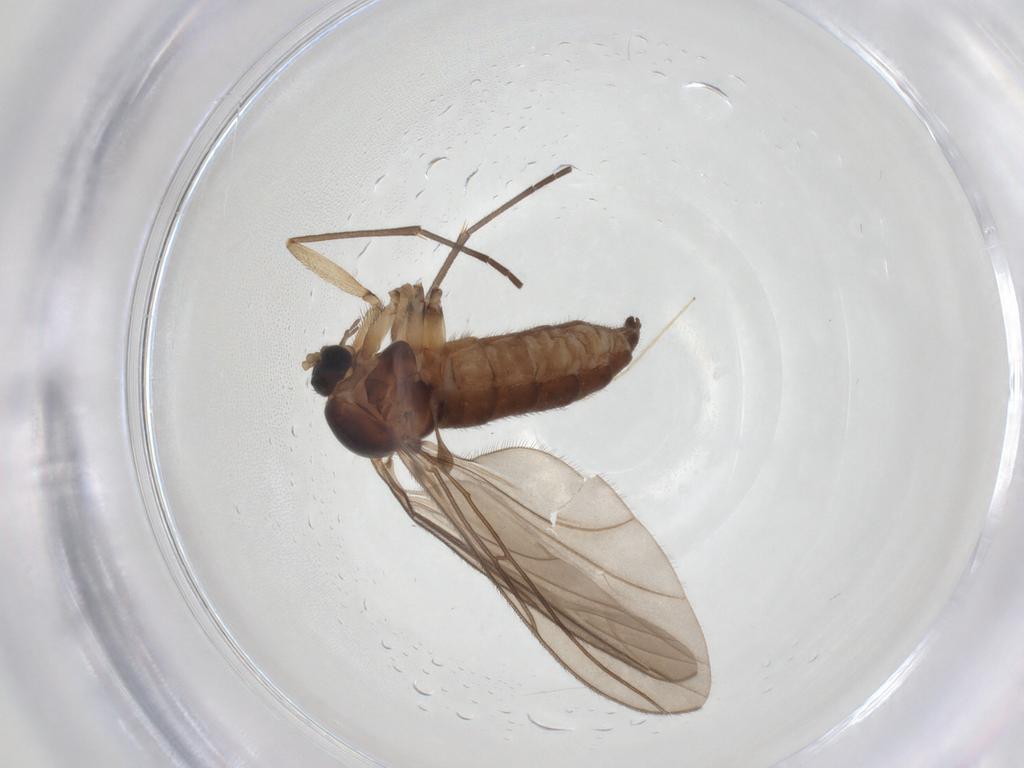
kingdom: Animalia
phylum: Arthropoda
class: Insecta
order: Diptera
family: Sciaridae
